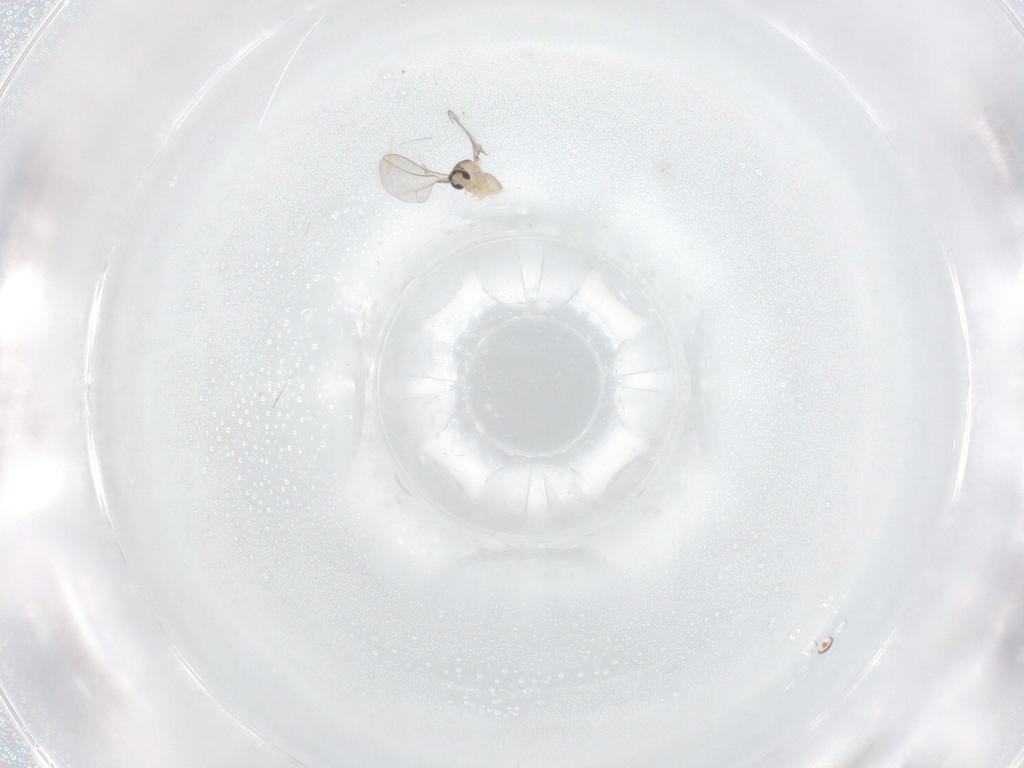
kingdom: Animalia
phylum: Arthropoda
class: Insecta
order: Diptera
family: Cecidomyiidae
